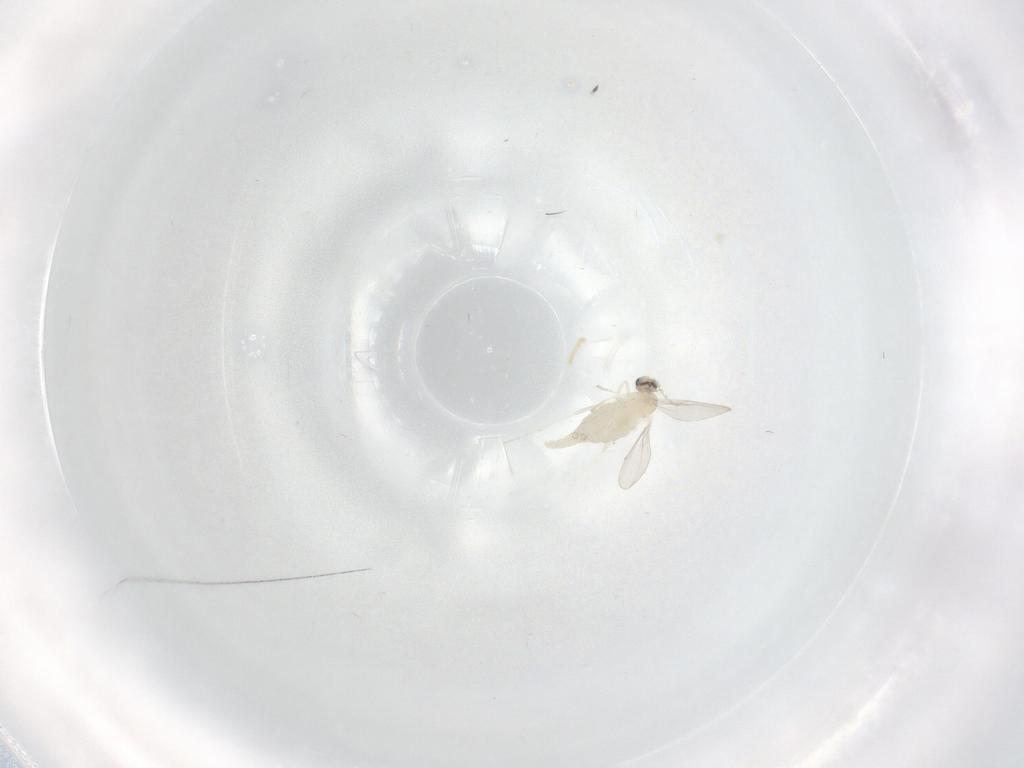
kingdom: Animalia
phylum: Arthropoda
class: Insecta
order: Diptera
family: Cecidomyiidae
